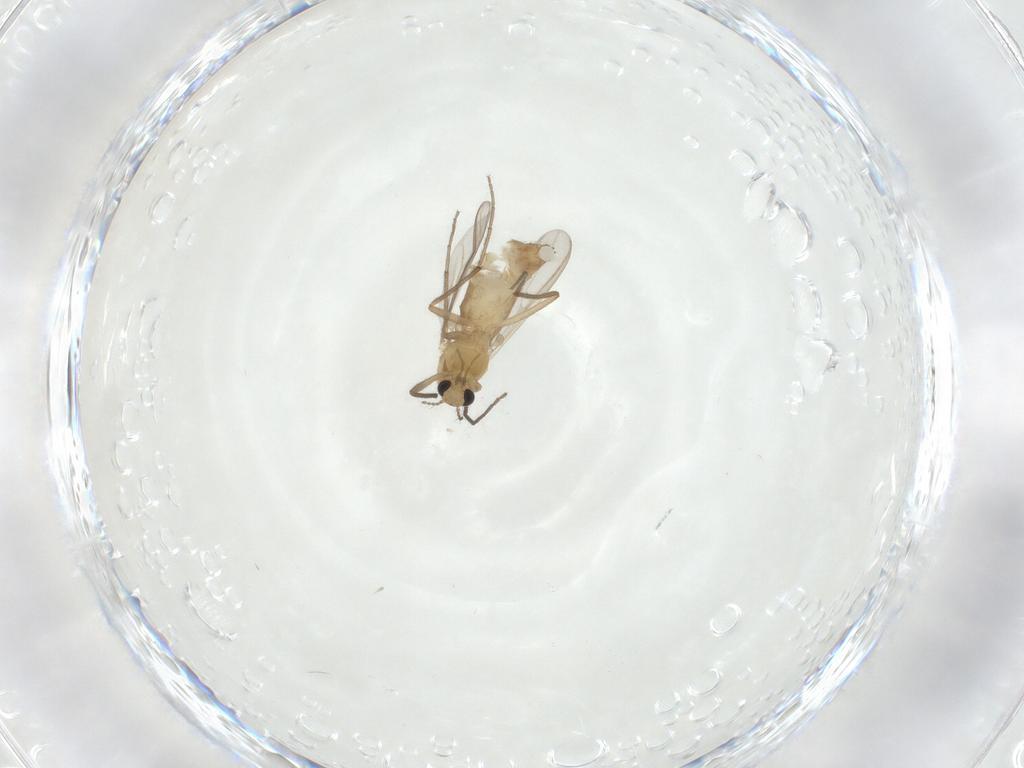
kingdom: Animalia
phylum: Arthropoda
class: Insecta
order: Diptera
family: Chironomidae
